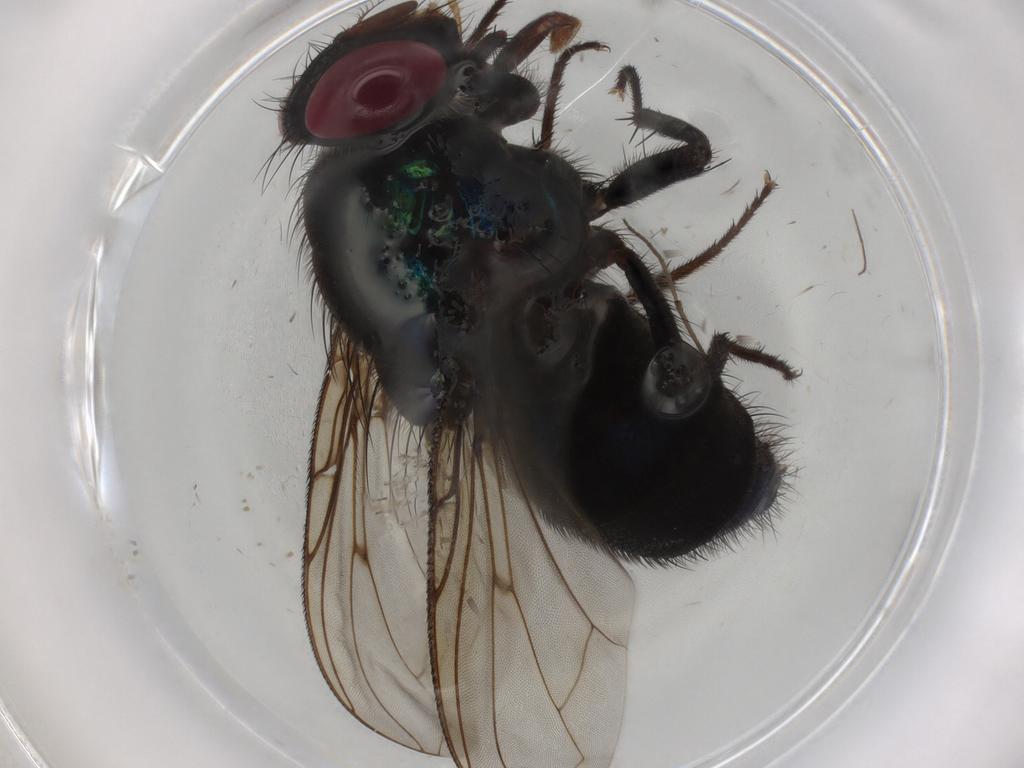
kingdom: Animalia
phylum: Arthropoda
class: Insecta
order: Diptera
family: Calliphoridae
